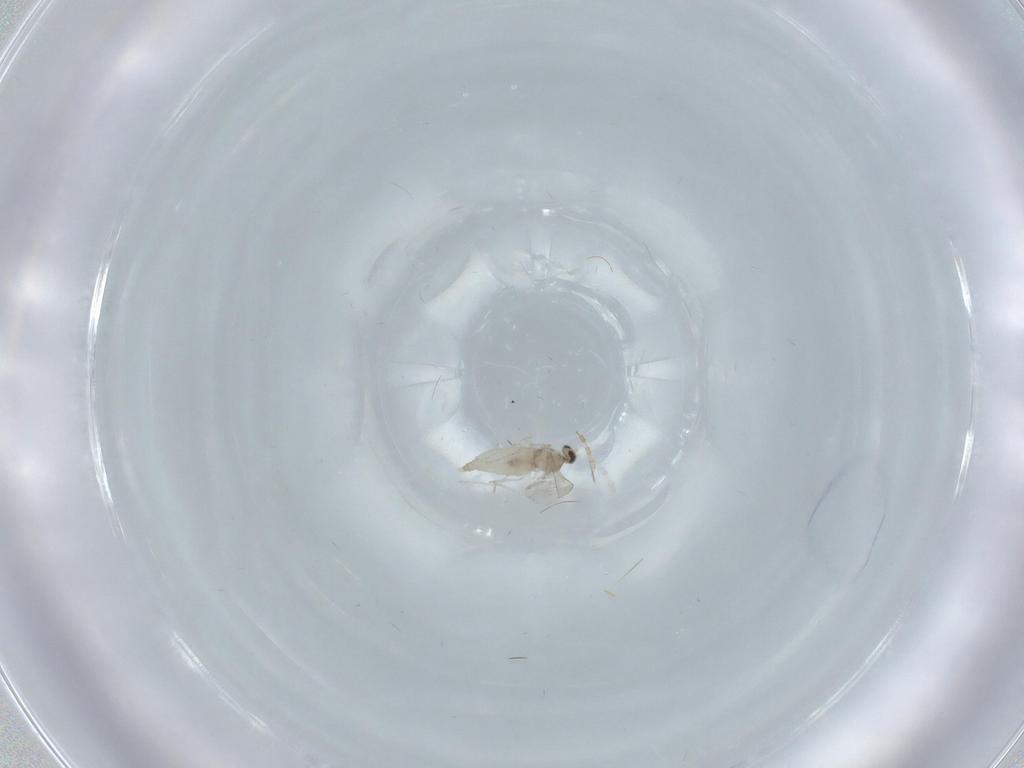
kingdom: Animalia
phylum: Arthropoda
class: Insecta
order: Diptera
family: Cecidomyiidae
